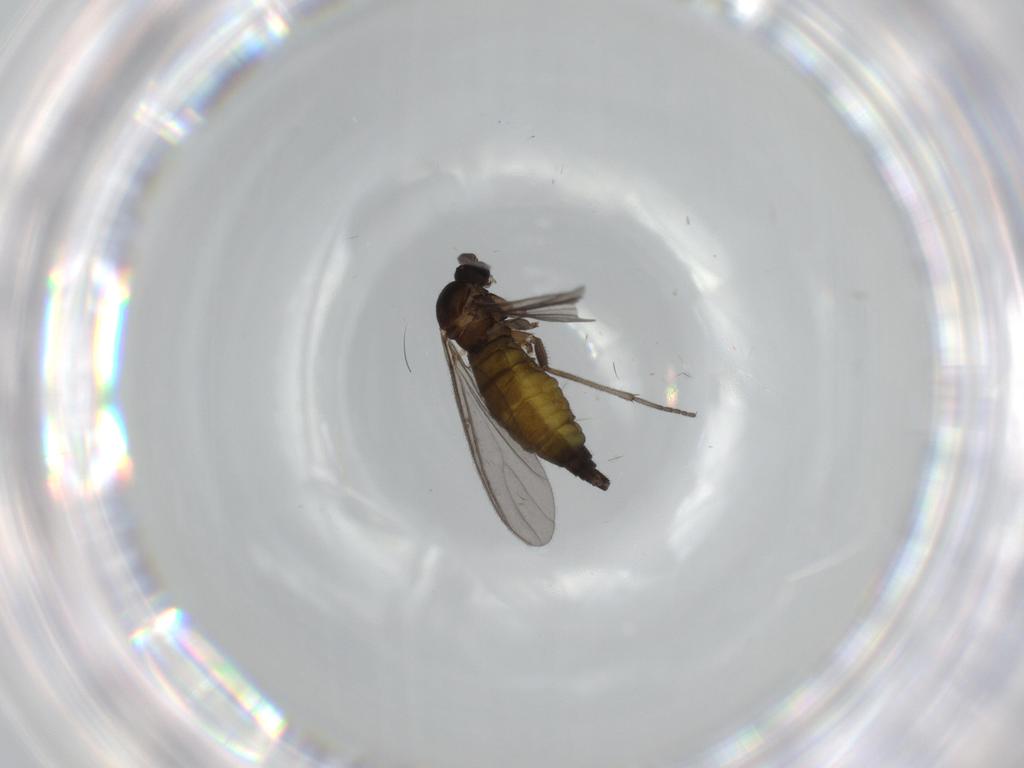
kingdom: Animalia
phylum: Arthropoda
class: Insecta
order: Diptera
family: Sciaridae
